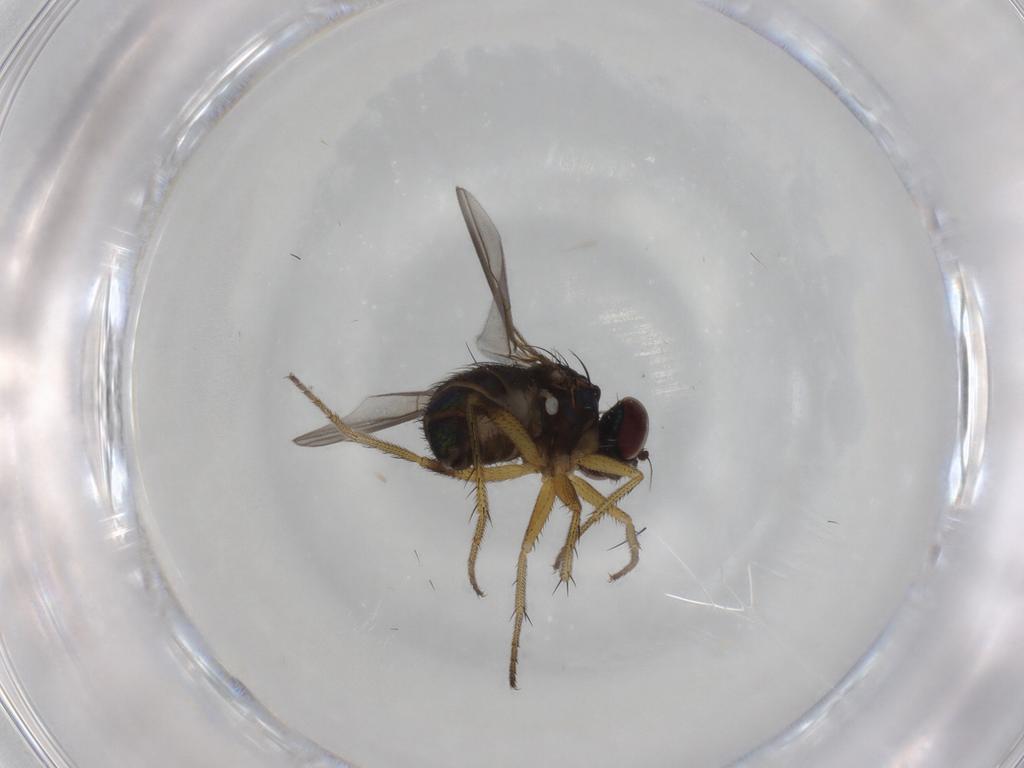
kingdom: Animalia
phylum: Arthropoda
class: Insecta
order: Diptera
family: Dolichopodidae
